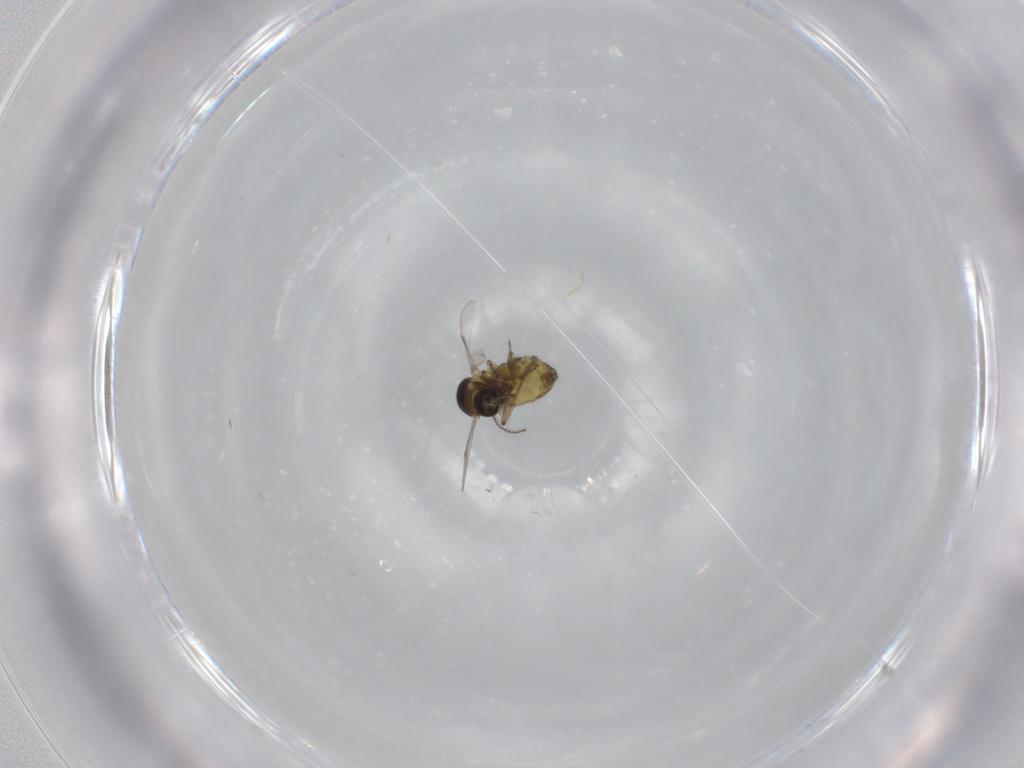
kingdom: Animalia
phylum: Arthropoda
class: Insecta
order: Diptera
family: Ceratopogonidae
